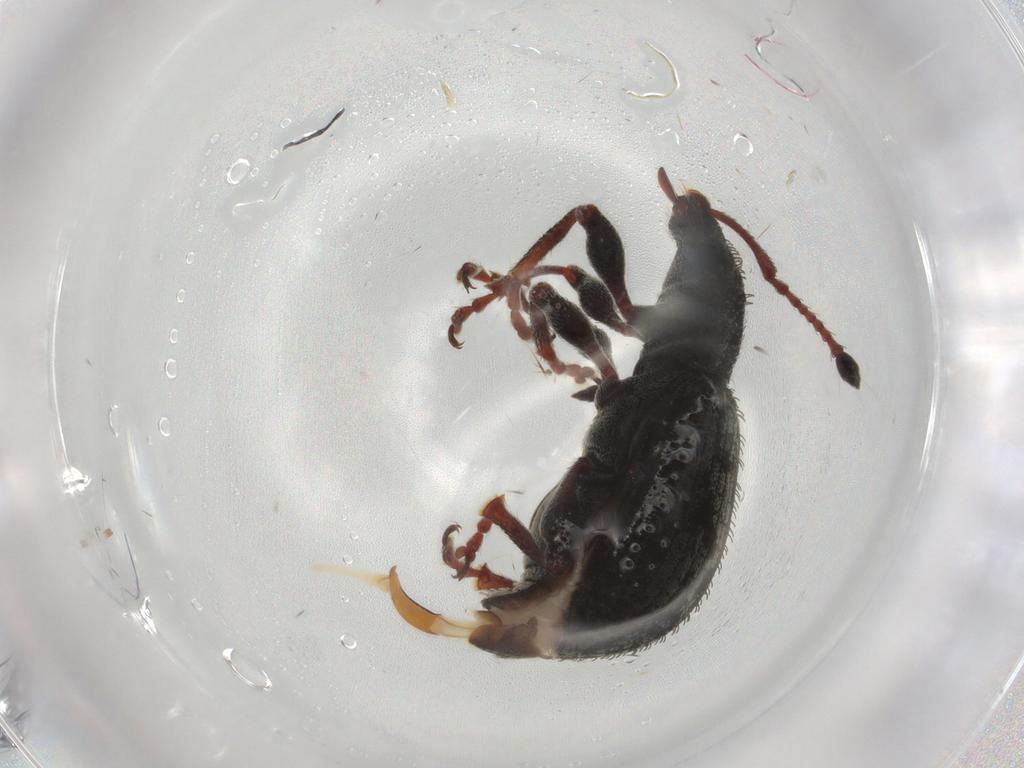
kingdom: Animalia
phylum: Arthropoda
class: Insecta
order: Coleoptera
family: Curculionidae
